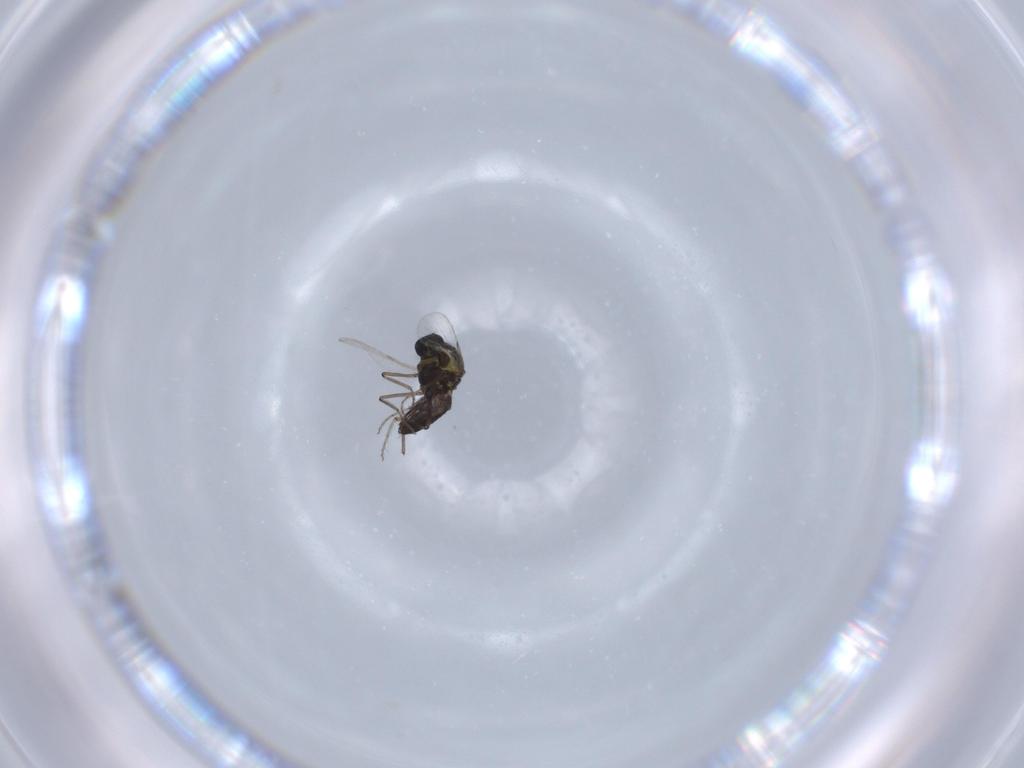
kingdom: Animalia
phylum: Arthropoda
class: Insecta
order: Diptera
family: Ceratopogonidae
